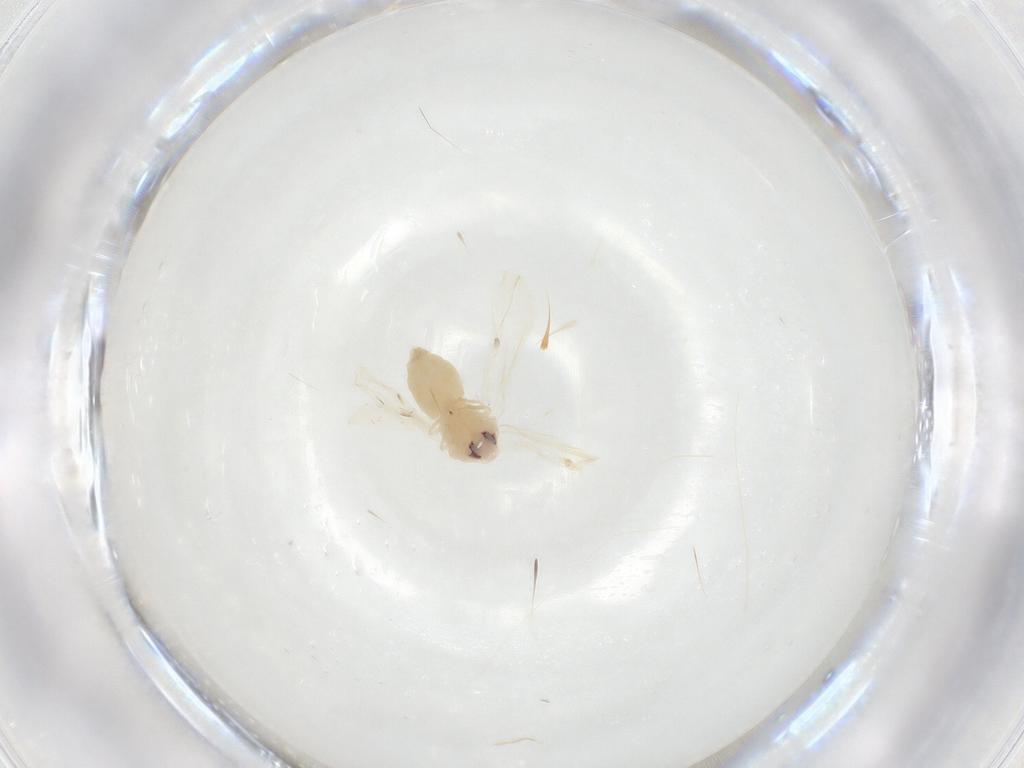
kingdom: Animalia
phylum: Arthropoda
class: Insecta
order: Hemiptera
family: Aleyrodidae
